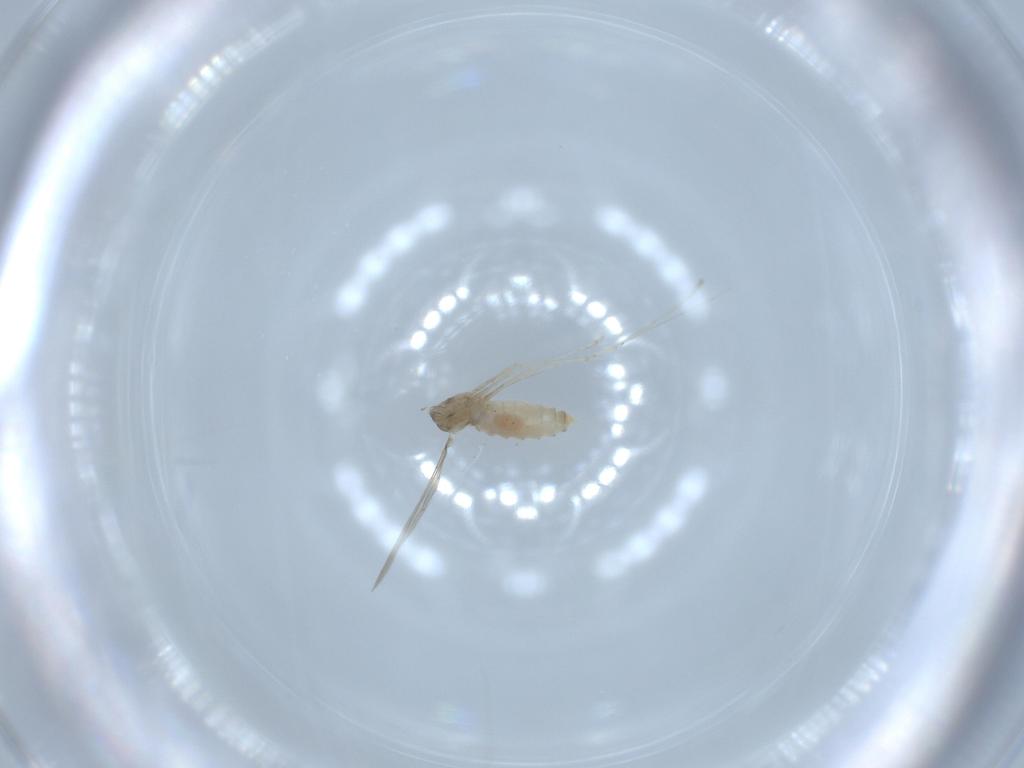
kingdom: Animalia
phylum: Arthropoda
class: Insecta
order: Diptera
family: Cecidomyiidae
